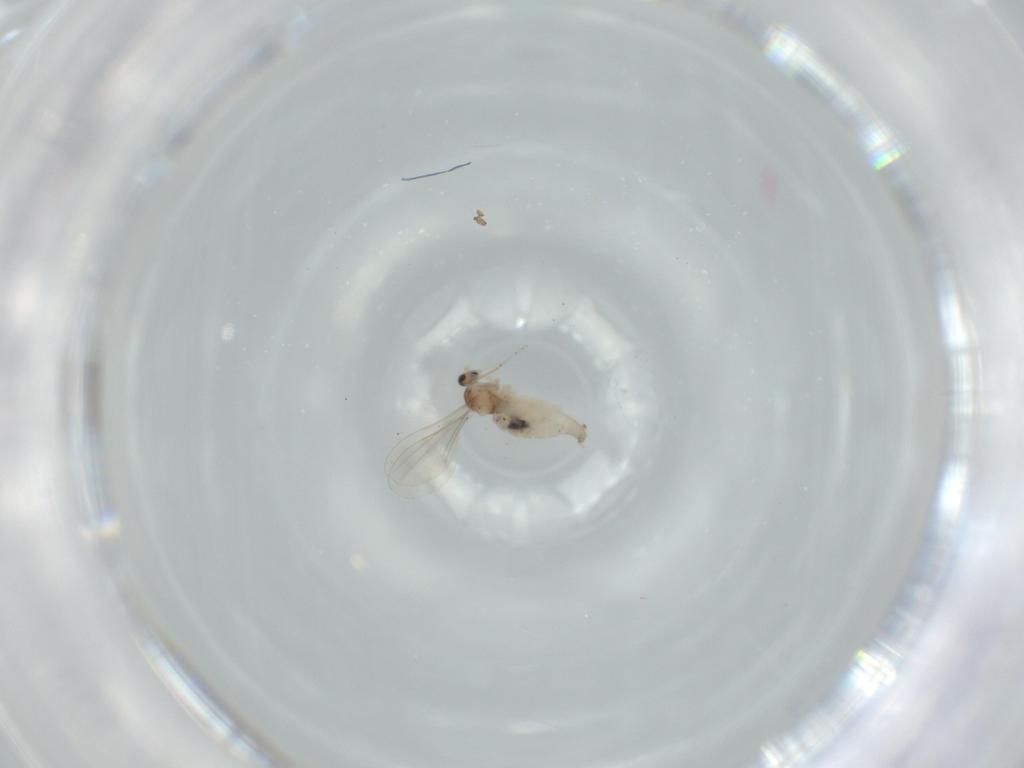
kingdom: Animalia
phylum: Arthropoda
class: Insecta
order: Diptera
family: Cecidomyiidae
